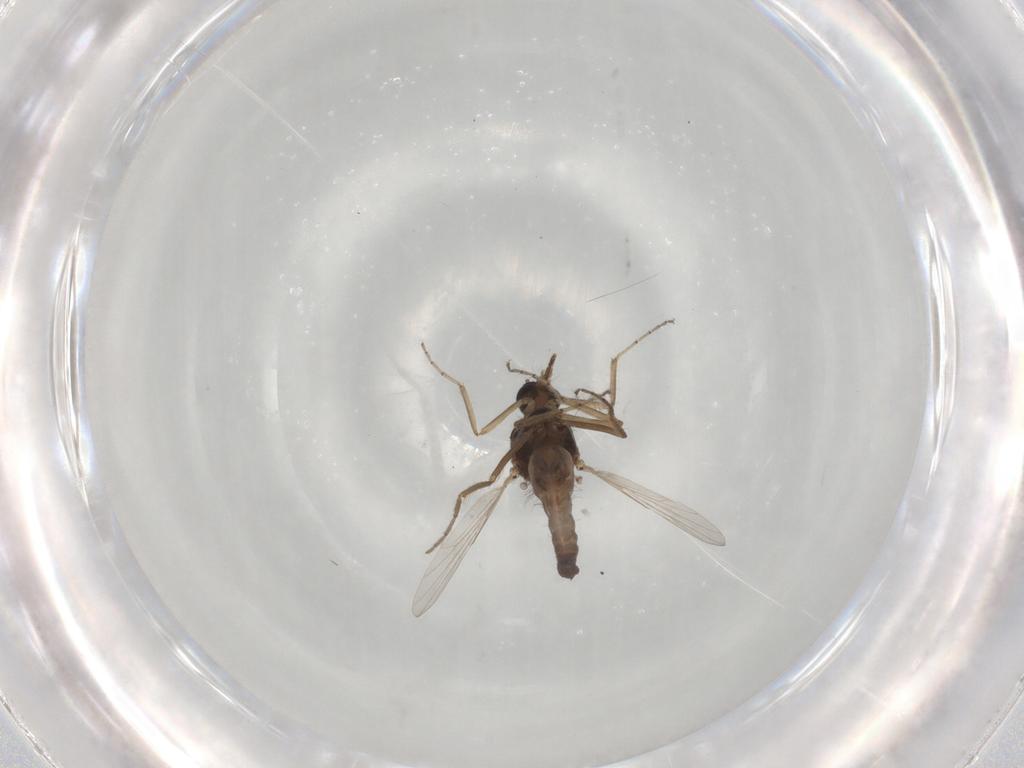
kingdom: Animalia
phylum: Arthropoda
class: Insecta
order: Diptera
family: Ceratopogonidae
